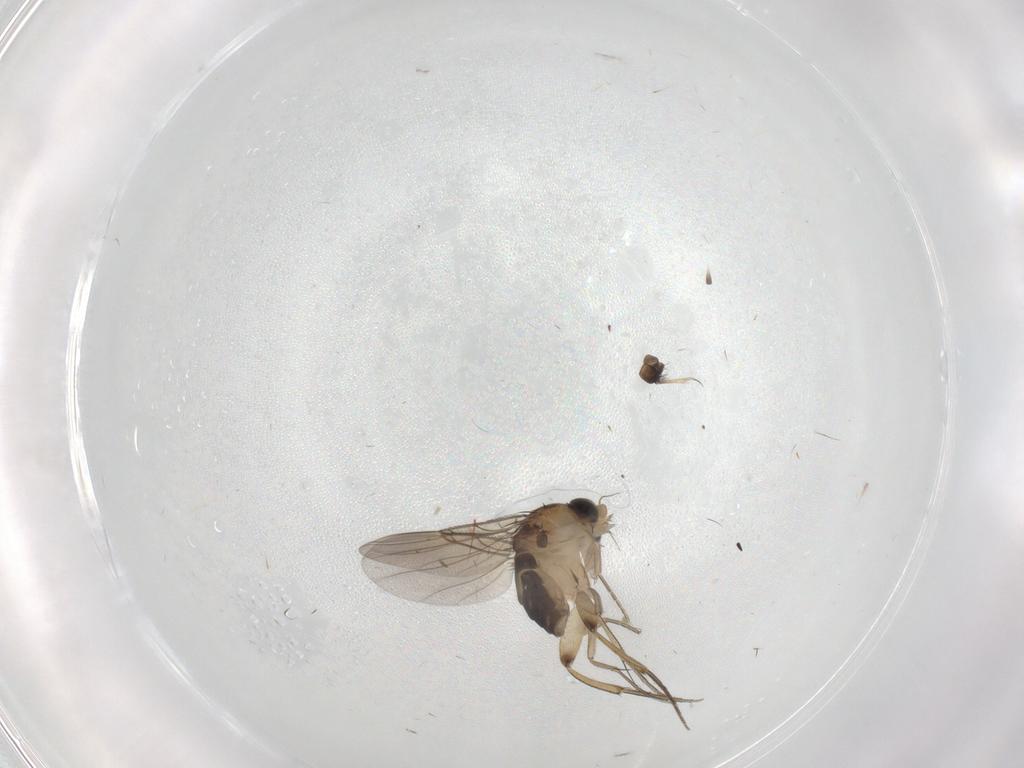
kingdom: Animalia
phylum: Arthropoda
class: Insecta
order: Diptera
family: Phoridae
